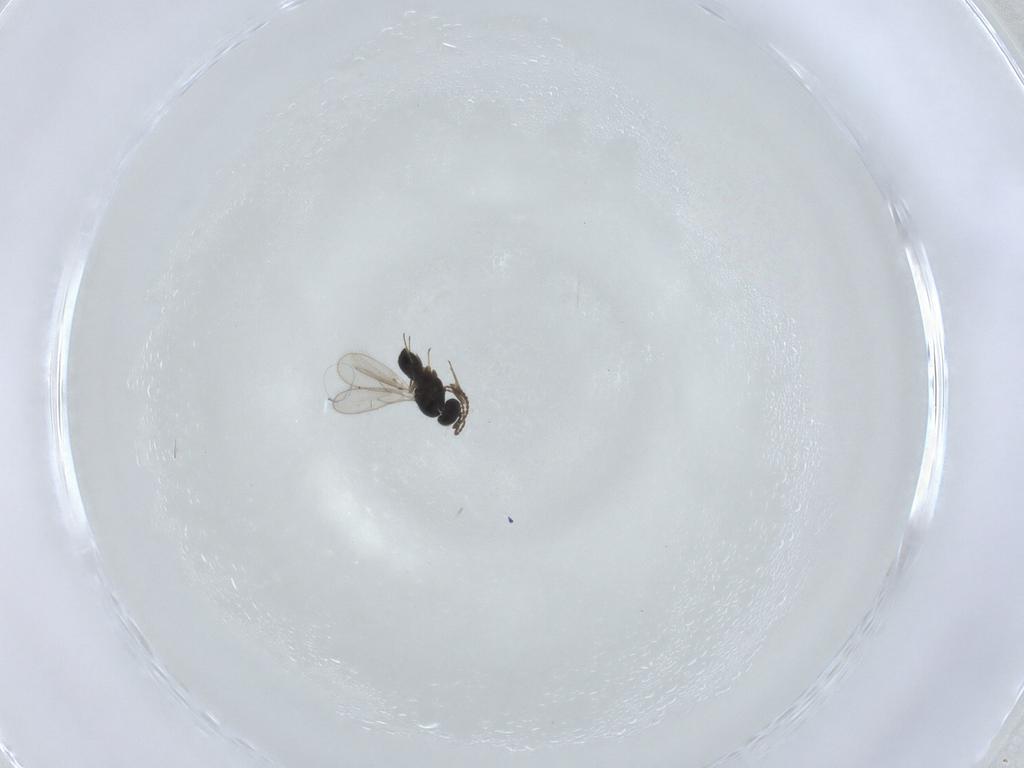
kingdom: Animalia
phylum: Arthropoda
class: Insecta
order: Hymenoptera
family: Scelionidae
